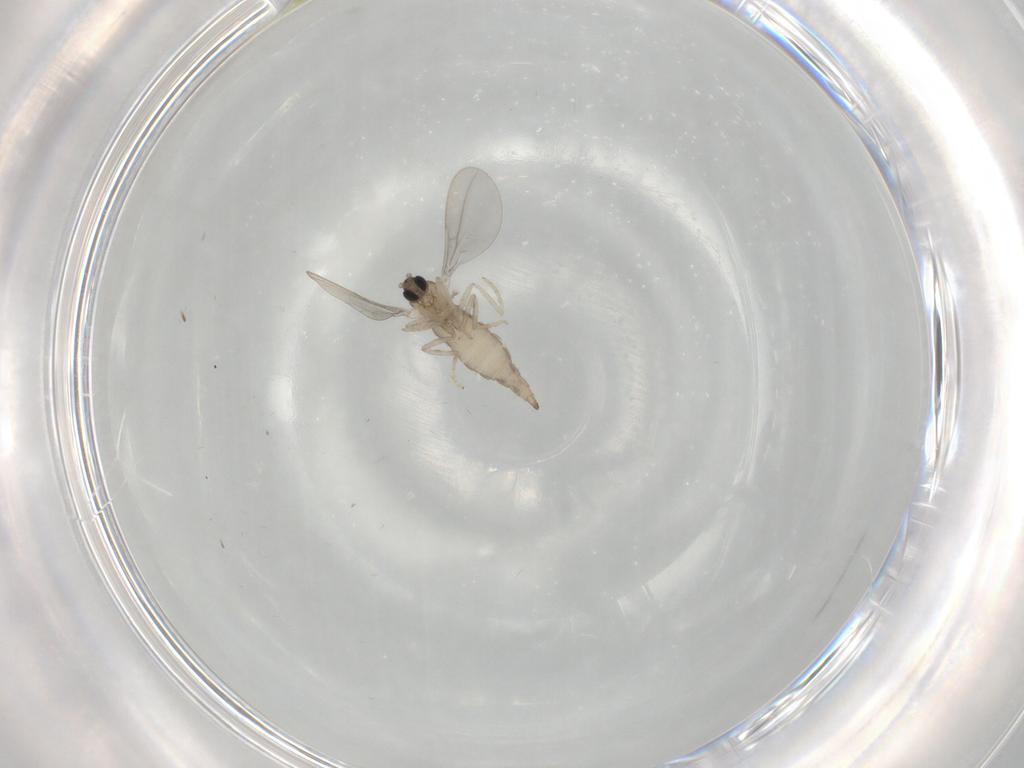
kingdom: Animalia
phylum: Arthropoda
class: Insecta
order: Diptera
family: Cecidomyiidae
